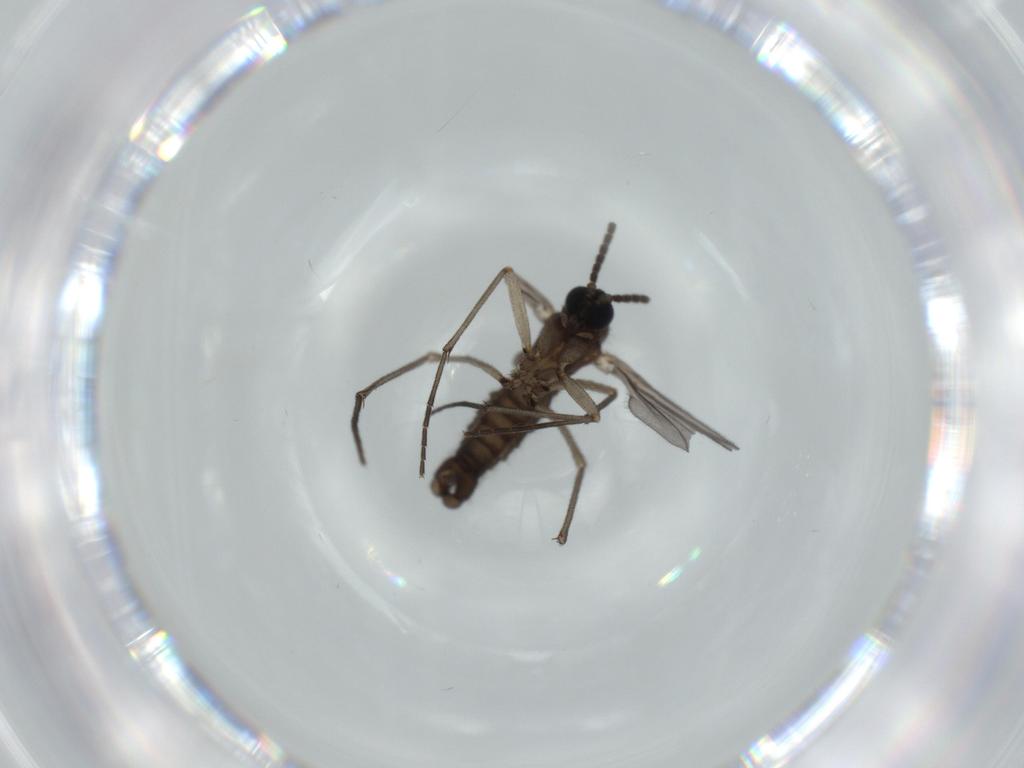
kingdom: Animalia
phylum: Arthropoda
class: Insecta
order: Diptera
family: Sciaridae
